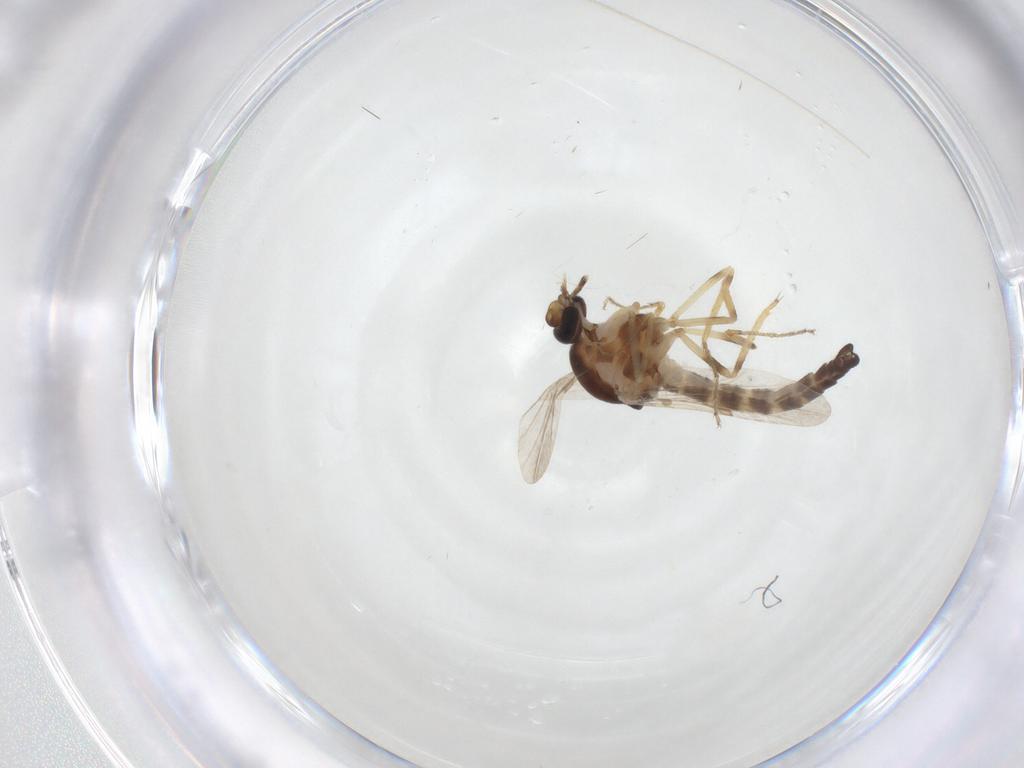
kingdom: Animalia
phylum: Arthropoda
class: Insecta
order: Diptera
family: Ceratopogonidae
